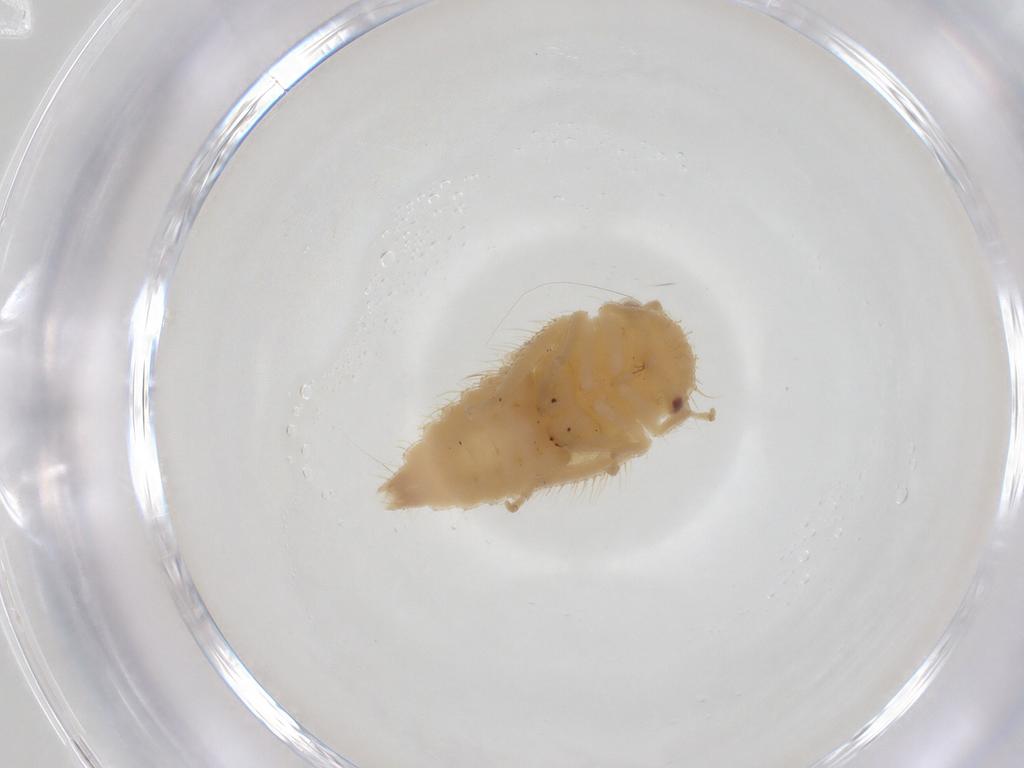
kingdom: Animalia
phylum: Arthropoda
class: Insecta
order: Hemiptera
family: Cicadellidae
